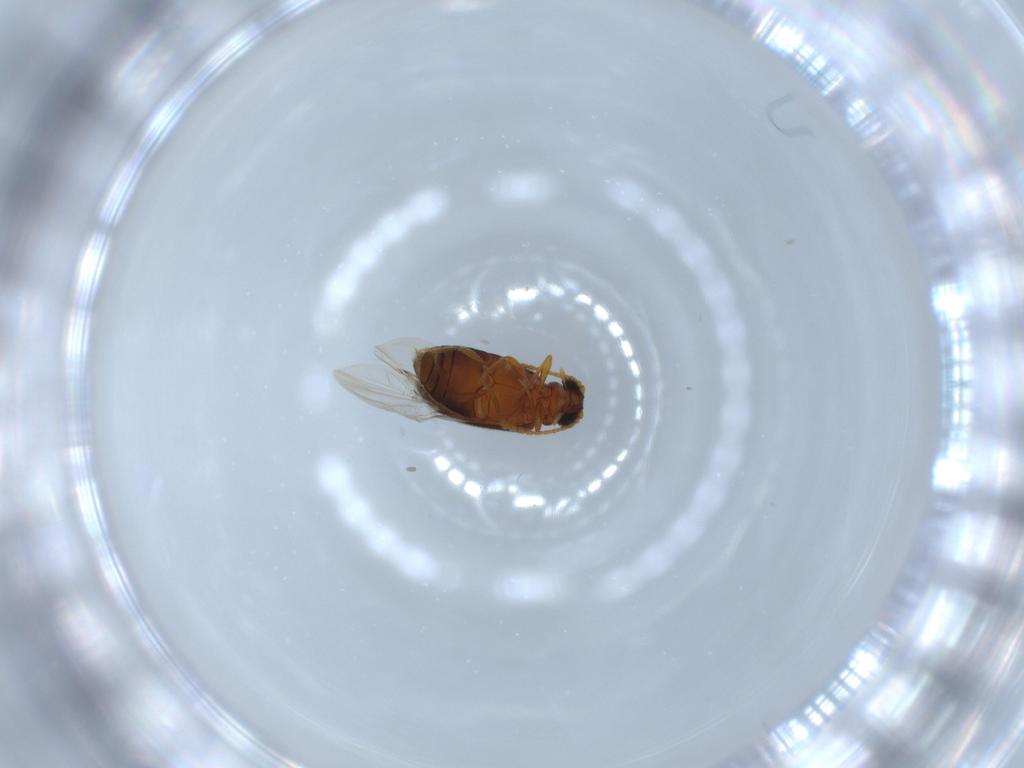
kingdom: Animalia
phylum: Arthropoda
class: Insecta
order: Coleoptera
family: Aderidae
